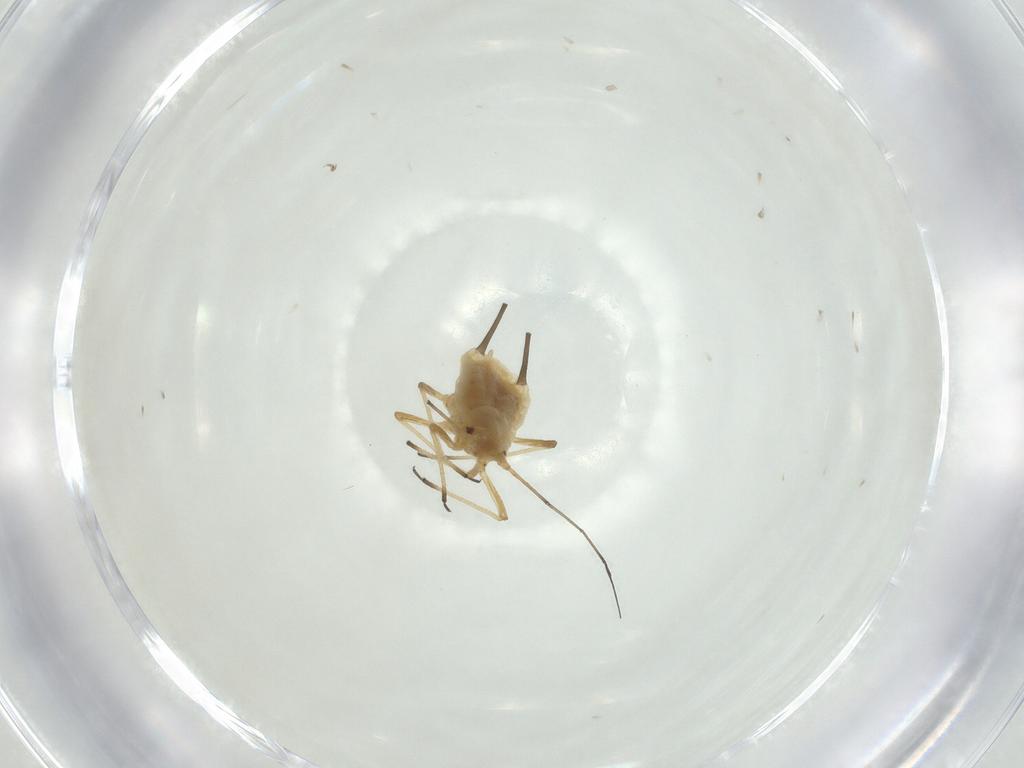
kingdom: Animalia
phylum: Arthropoda
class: Insecta
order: Hemiptera
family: Aphididae
